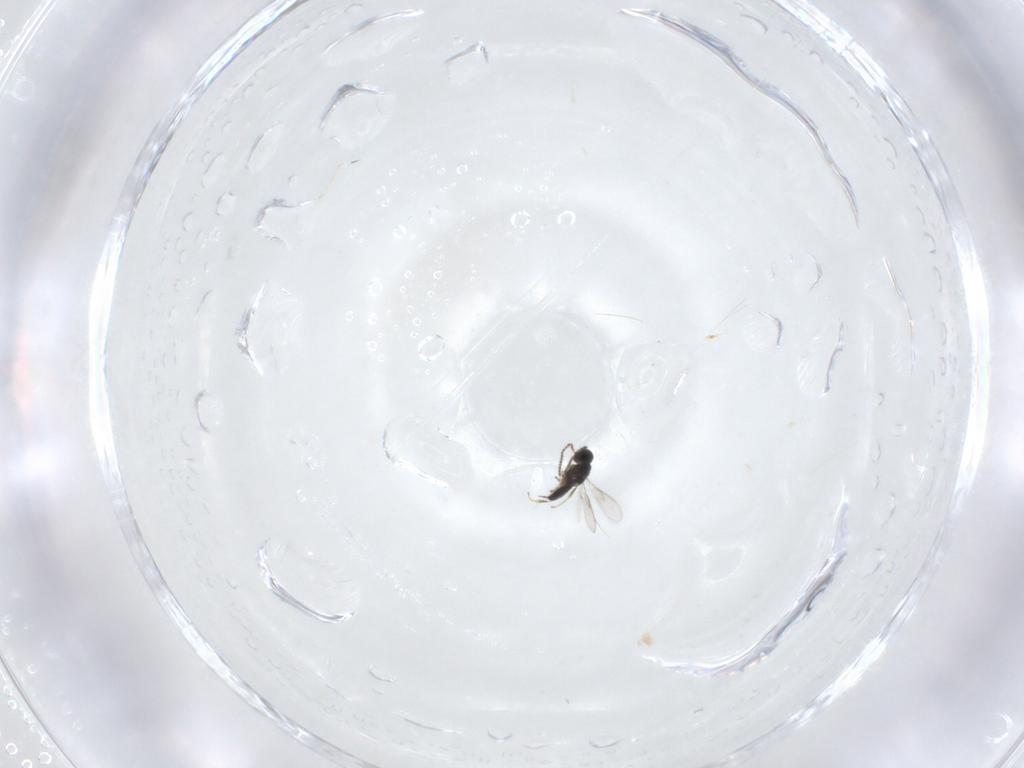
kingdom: Animalia
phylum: Arthropoda
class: Insecta
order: Hymenoptera
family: Scelionidae
